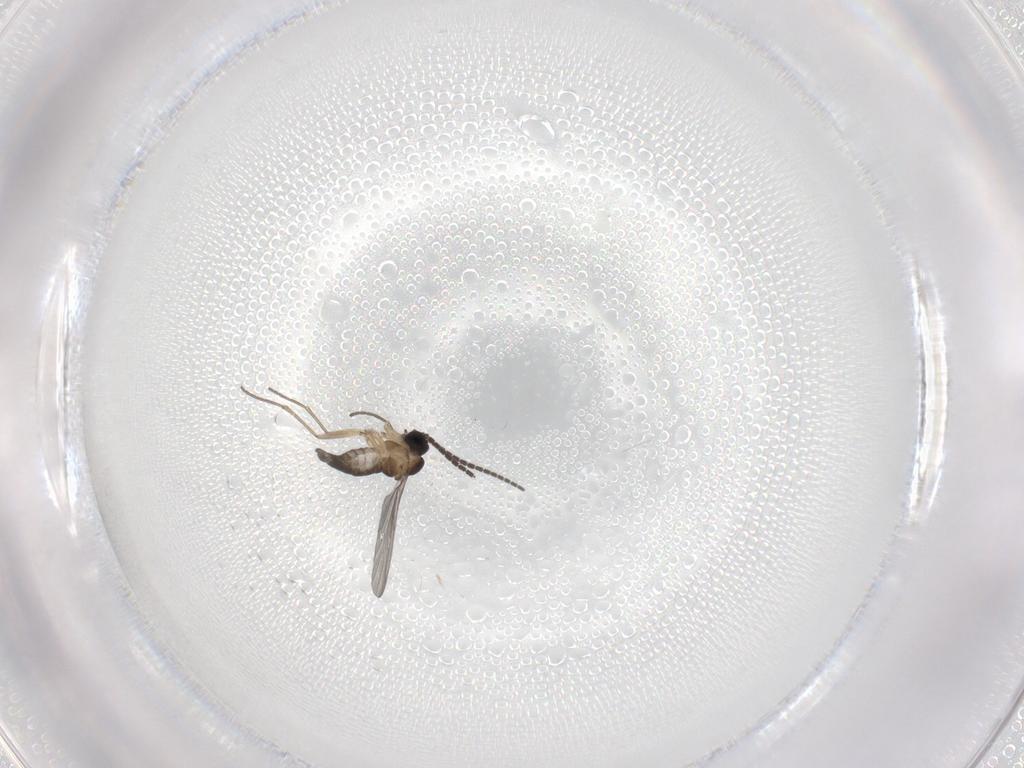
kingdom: Animalia
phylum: Arthropoda
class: Insecta
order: Diptera
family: Sciaridae
